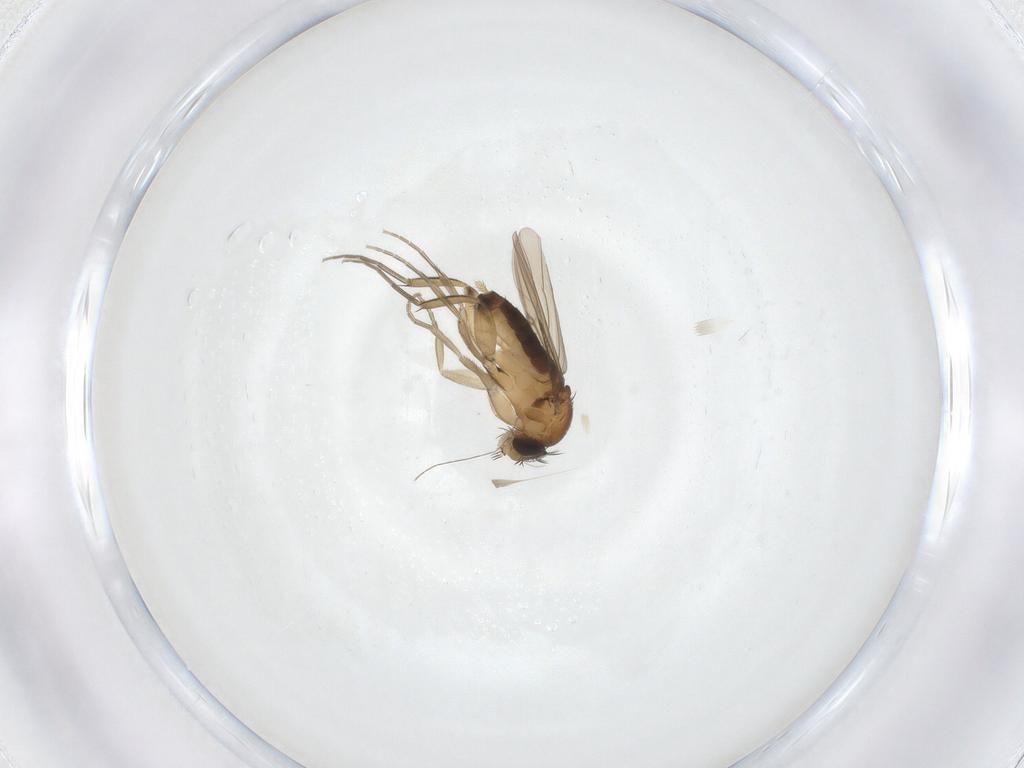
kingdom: Animalia
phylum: Arthropoda
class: Insecta
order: Diptera
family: Phoridae
